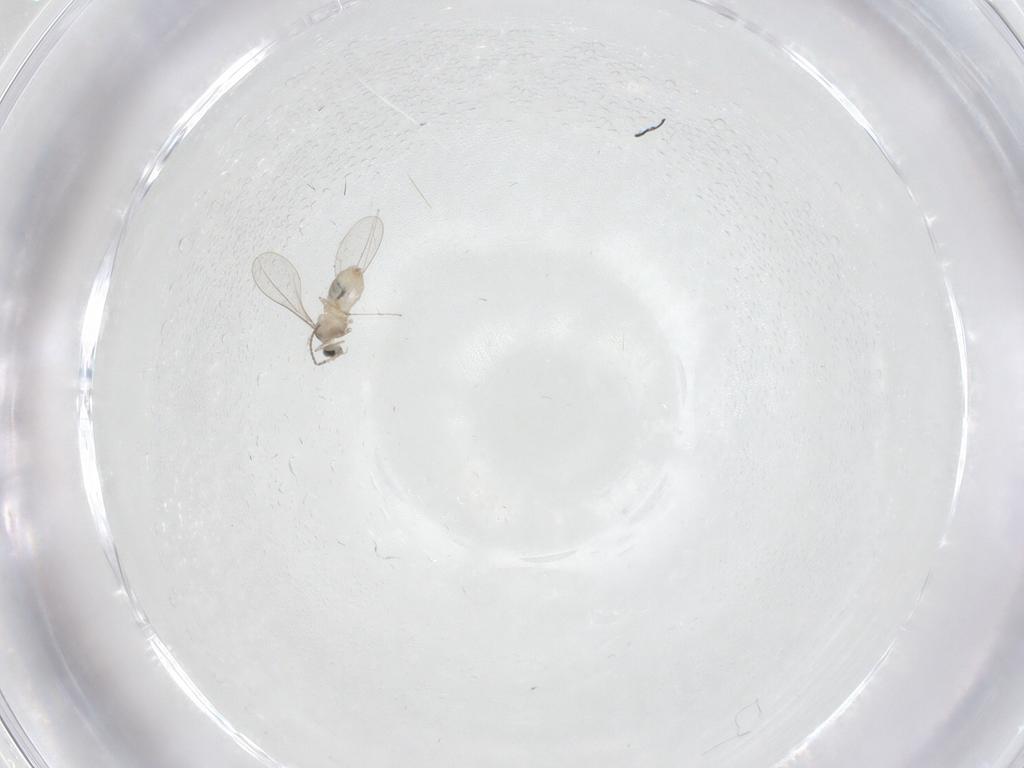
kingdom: Animalia
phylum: Arthropoda
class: Insecta
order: Diptera
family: Cecidomyiidae
